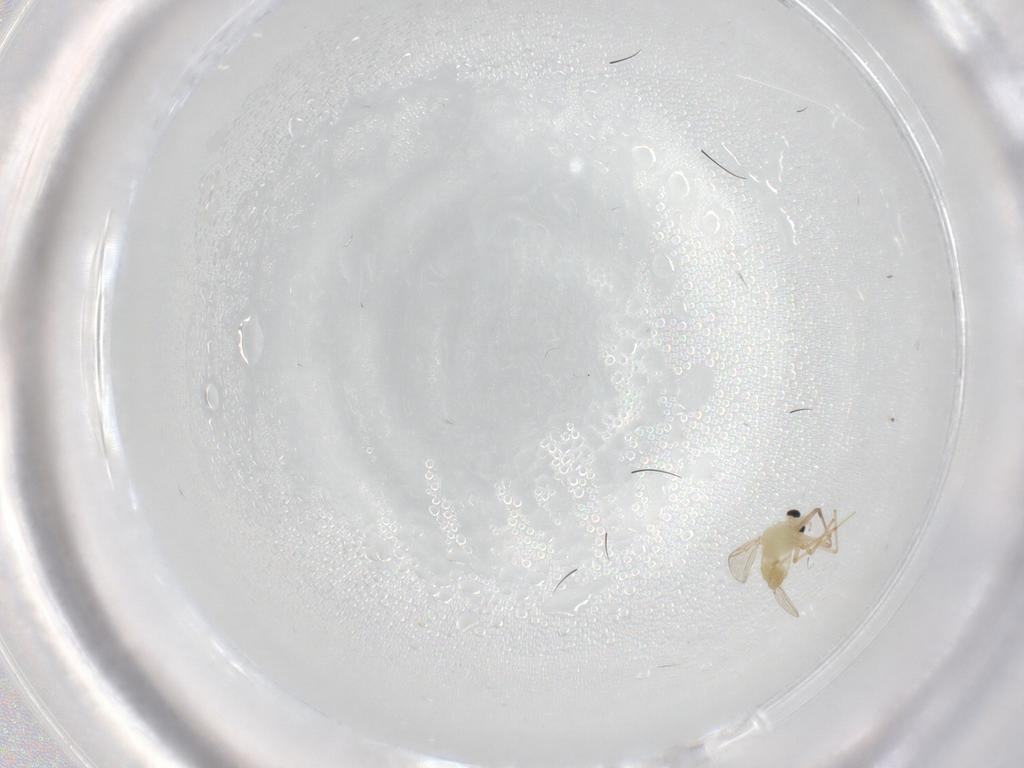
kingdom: Animalia
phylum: Arthropoda
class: Insecta
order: Diptera
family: Chironomidae
